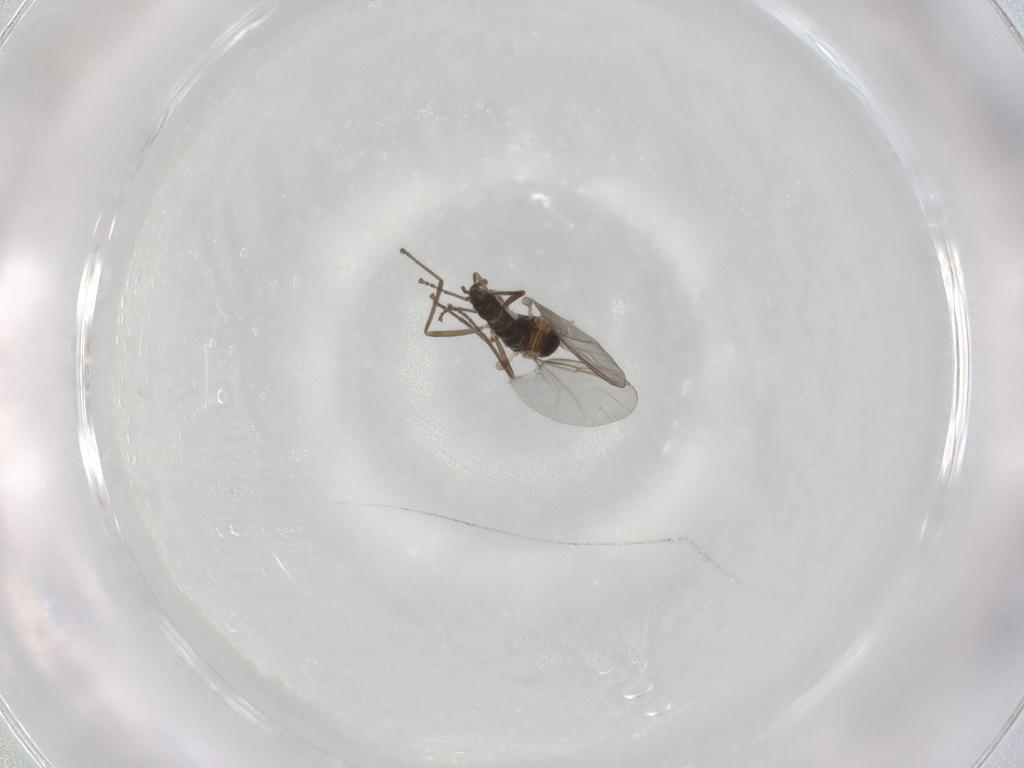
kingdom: Animalia
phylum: Arthropoda
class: Insecta
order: Diptera
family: Cecidomyiidae
